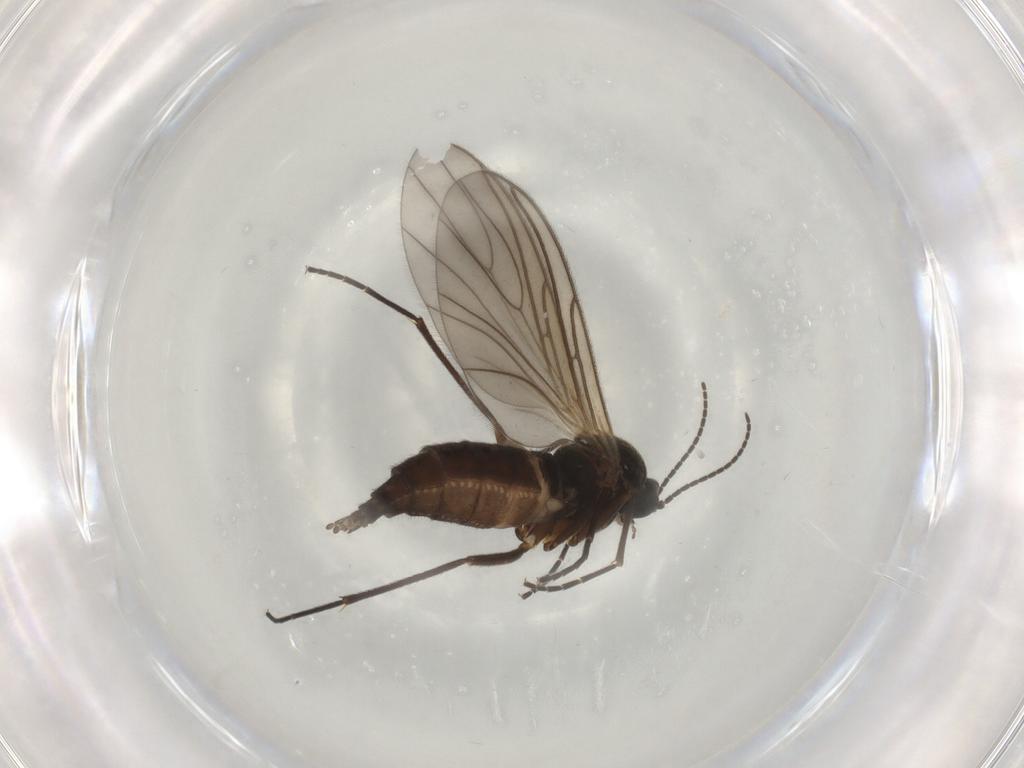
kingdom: Animalia
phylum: Arthropoda
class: Insecta
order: Diptera
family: Sciaridae
